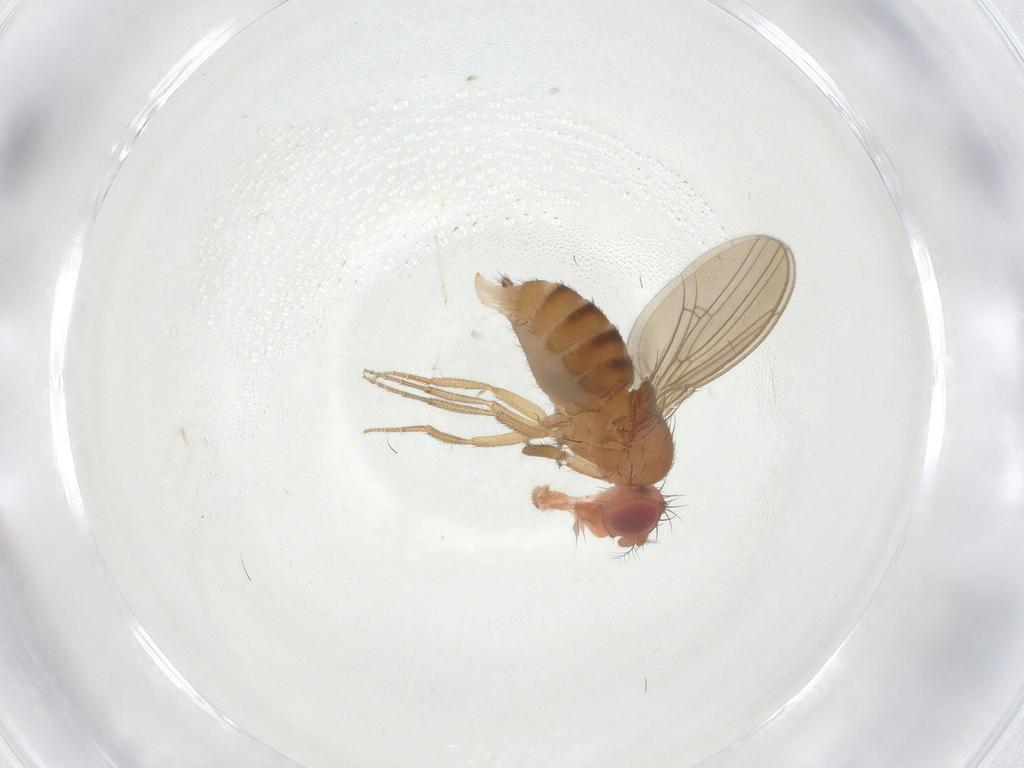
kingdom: Animalia
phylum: Arthropoda
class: Insecta
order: Diptera
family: Drosophilidae
